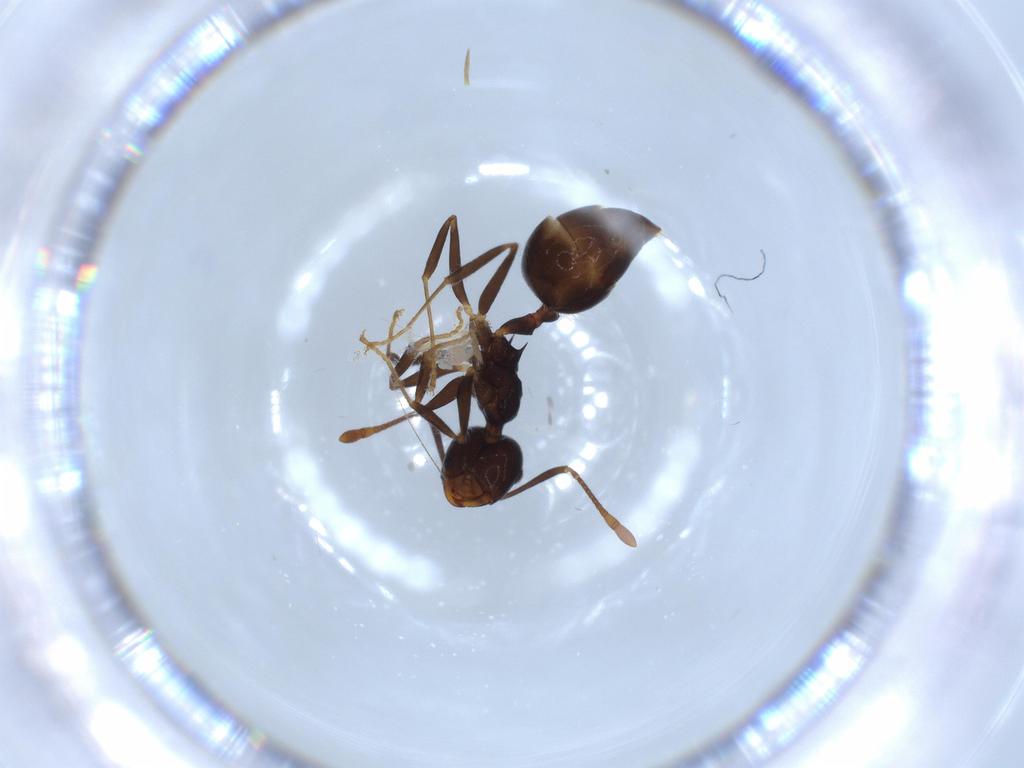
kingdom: Animalia
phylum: Arthropoda
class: Insecta
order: Hymenoptera
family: Formicidae
